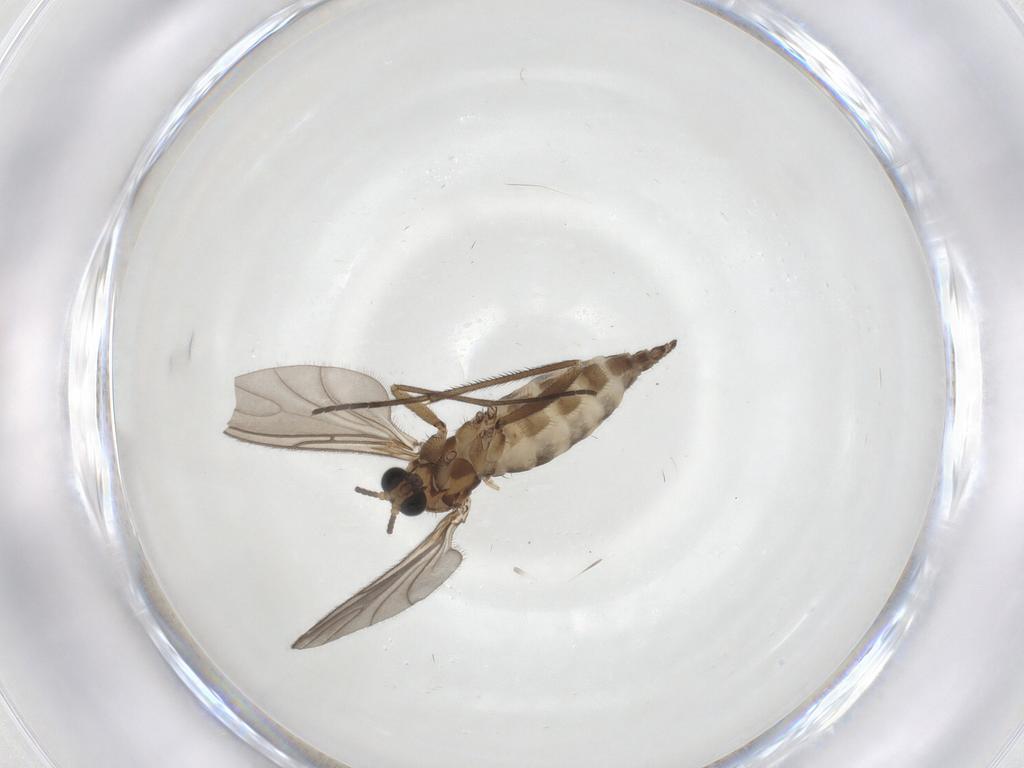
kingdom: Animalia
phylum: Arthropoda
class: Insecta
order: Diptera
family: Sciaridae
